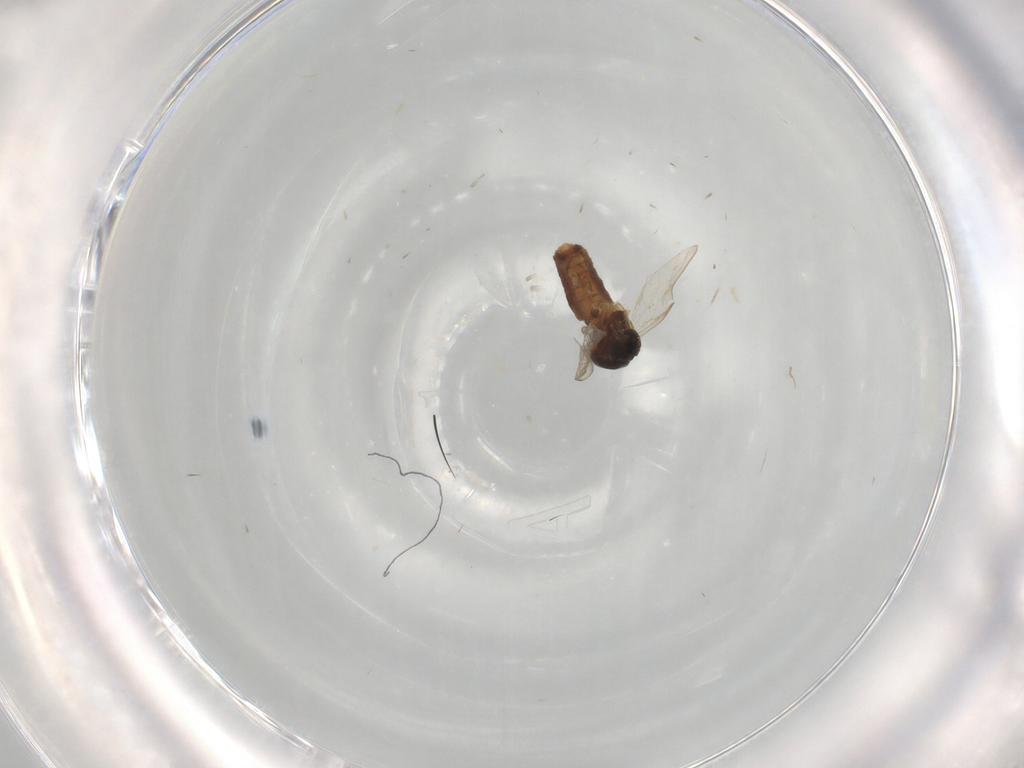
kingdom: Animalia
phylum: Arthropoda
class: Insecta
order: Diptera
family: Ceratopogonidae
